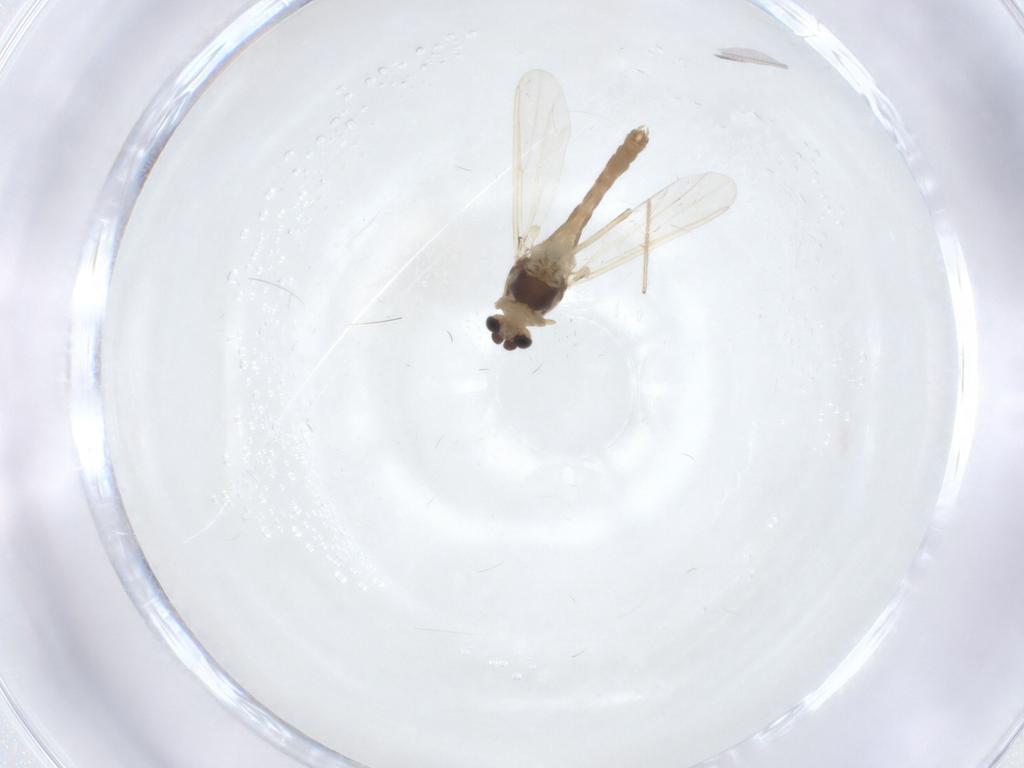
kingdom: Animalia
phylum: Arthropoda
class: Insecta
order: Diptera
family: Chironomidae
